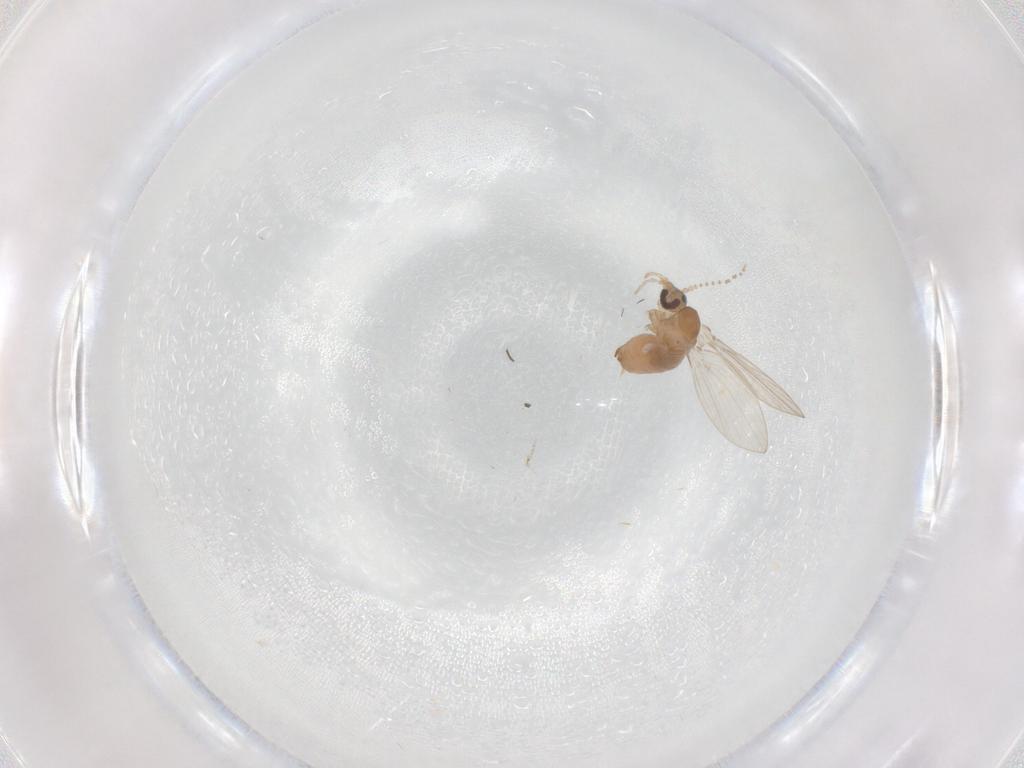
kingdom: Animalia
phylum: Arthropoda
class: Insecta
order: Diptera
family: Psychodidae
